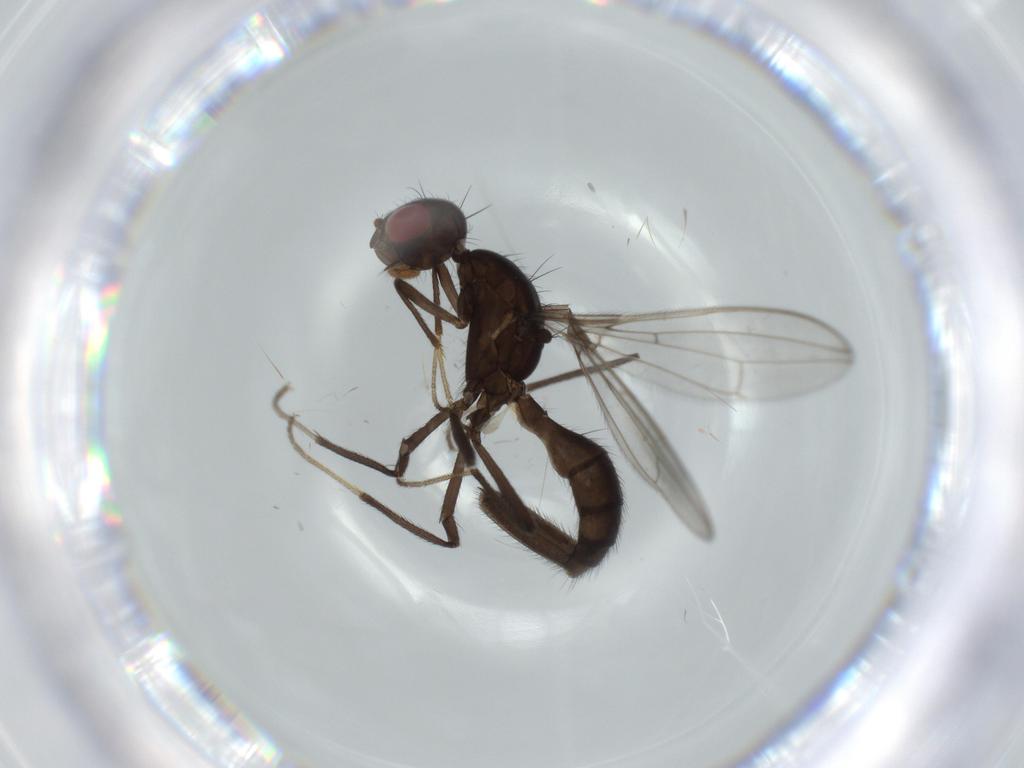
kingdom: Animalia
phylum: Arthropoda
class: Insecta
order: Diptera
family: Richardiidae
